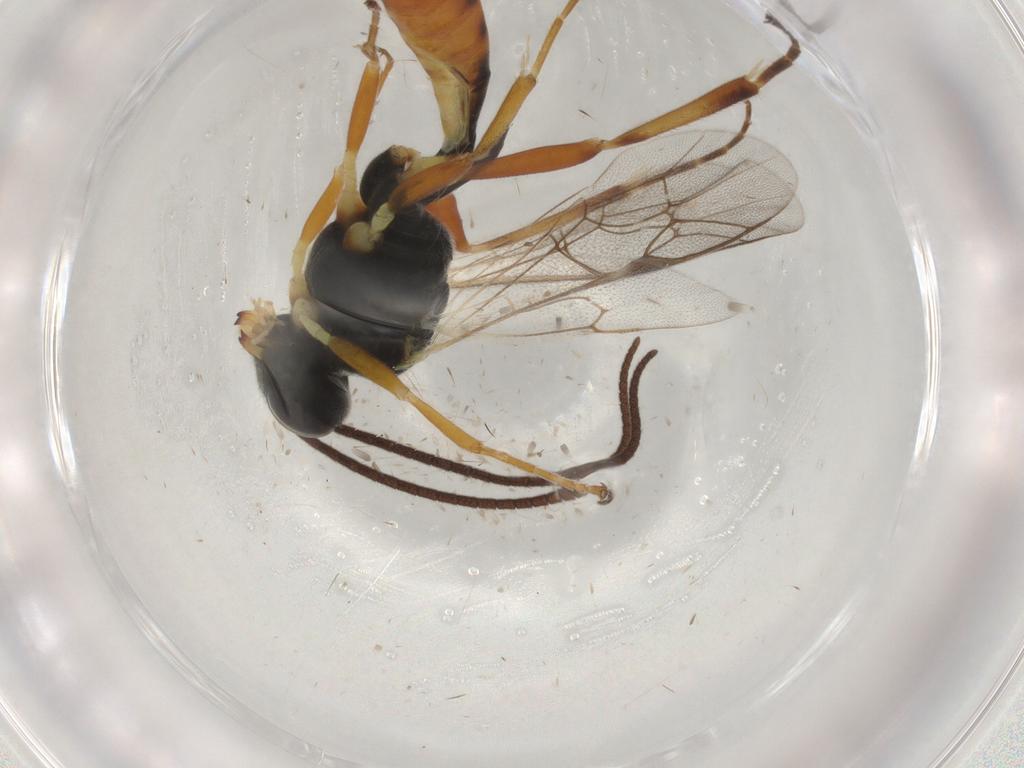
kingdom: Animalia
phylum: Arthropoda
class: Insecta
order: Hymenoptera
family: Ichneumonidae
